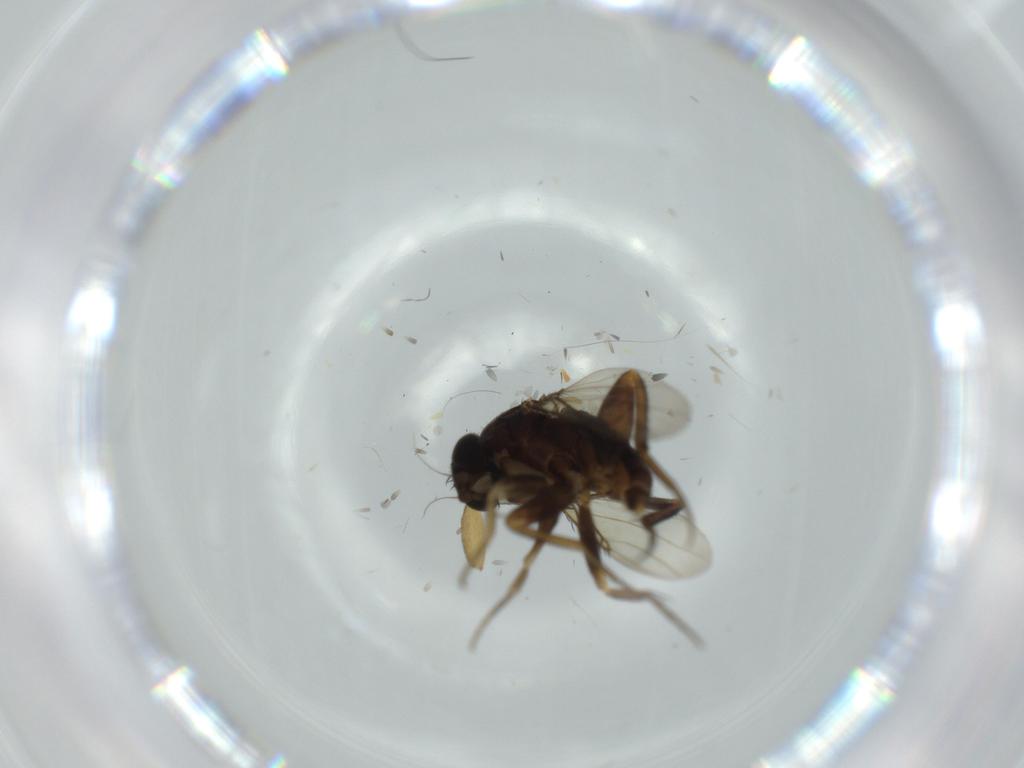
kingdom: Animalia
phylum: Arthropoda
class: Insecta
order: Diptera
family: Mycetophilidae
